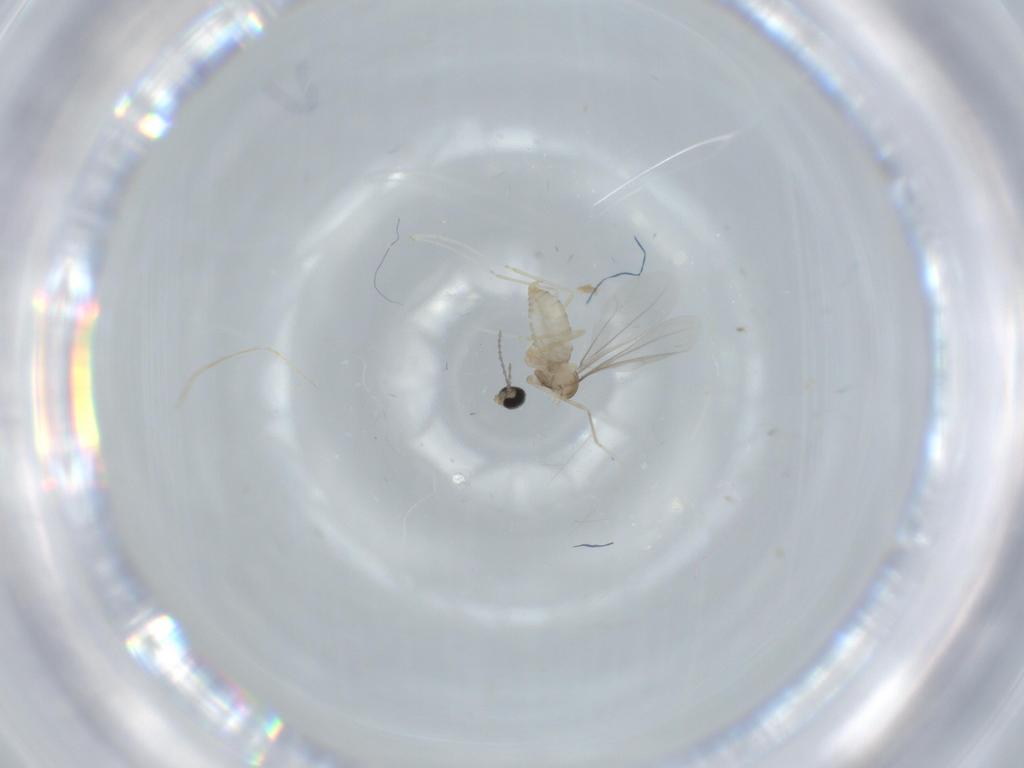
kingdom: Animalia
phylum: Arthropoda
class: Insecta
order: Diptera
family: Cecidomyiidae
